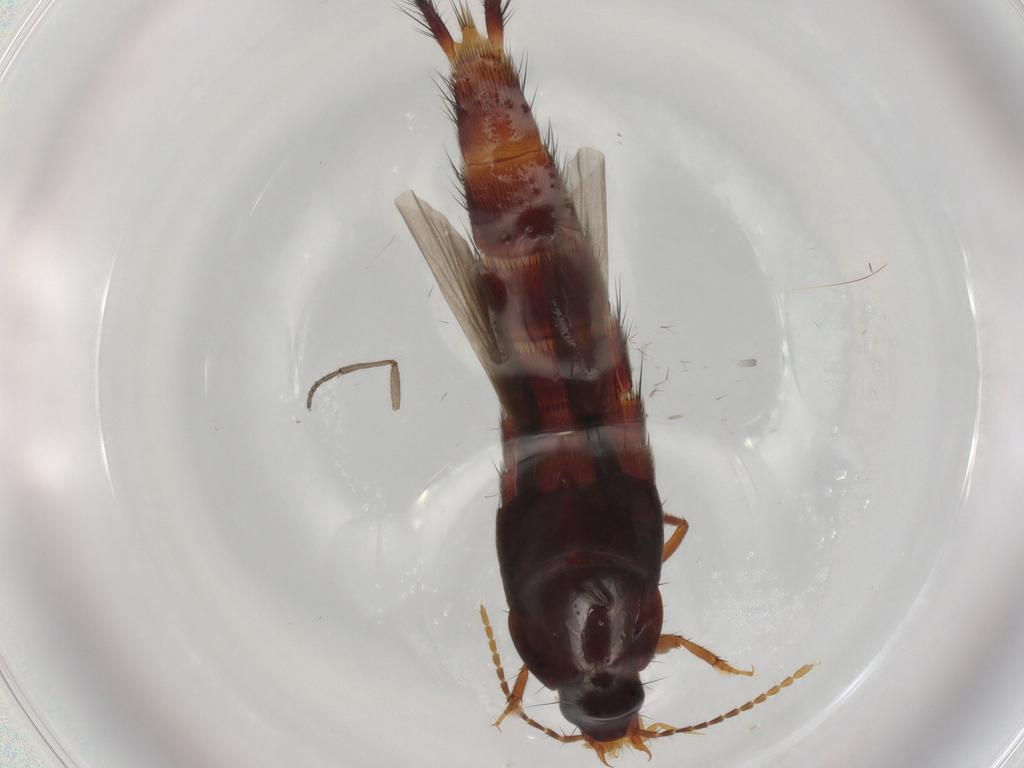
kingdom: Animalia
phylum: Arthropoda
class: Insecta
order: Coleoptera
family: Staphylinidae
